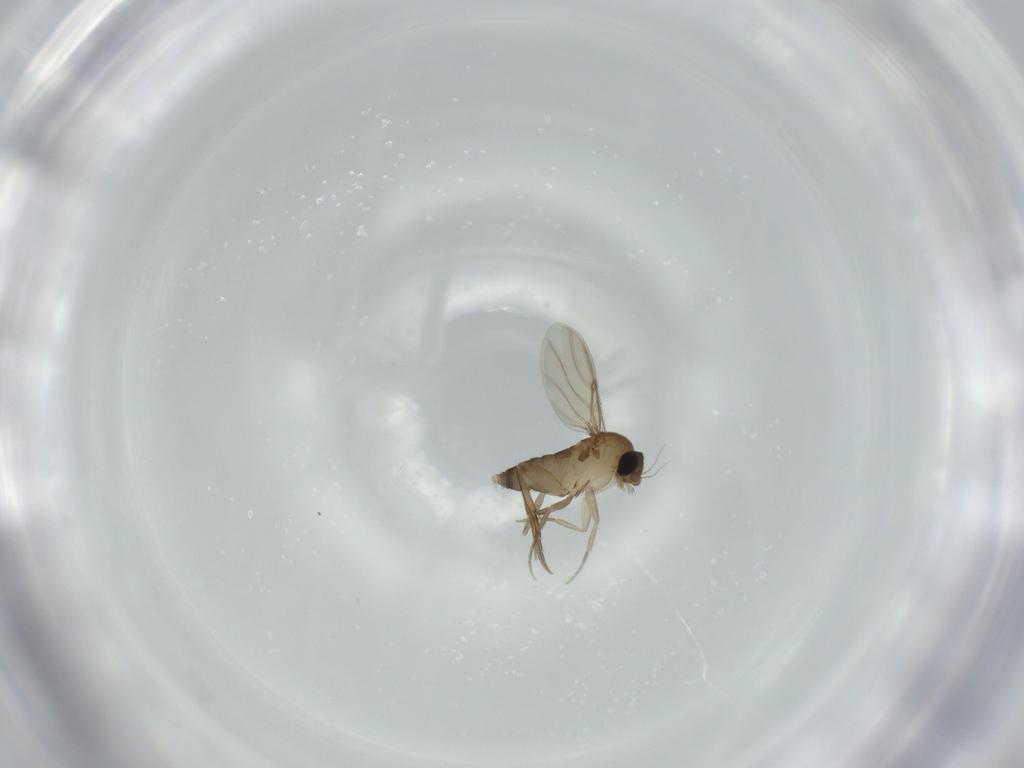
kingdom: Animalia
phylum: Arthropoda
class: Insecta
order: Diptera
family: Phoridae
